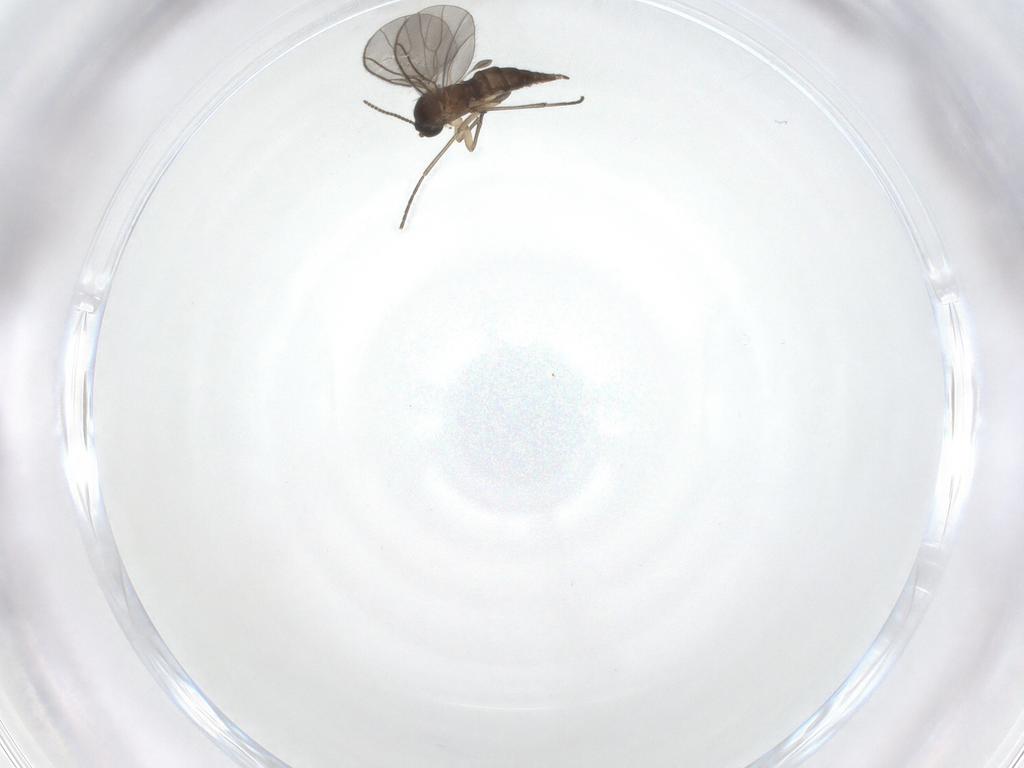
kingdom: Animalia
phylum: Arthropoda
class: Insecta
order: Diptera
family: Sciaridae
